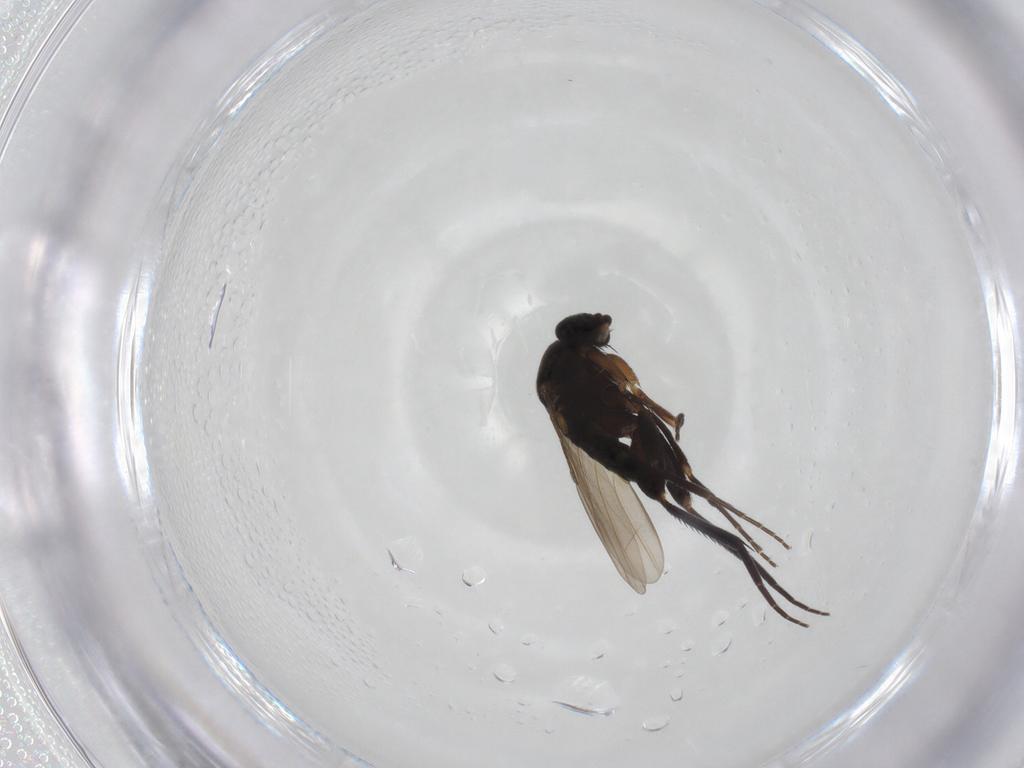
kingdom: Animalia
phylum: Arthropoda
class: Insecta
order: Diptera
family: Phoridae
